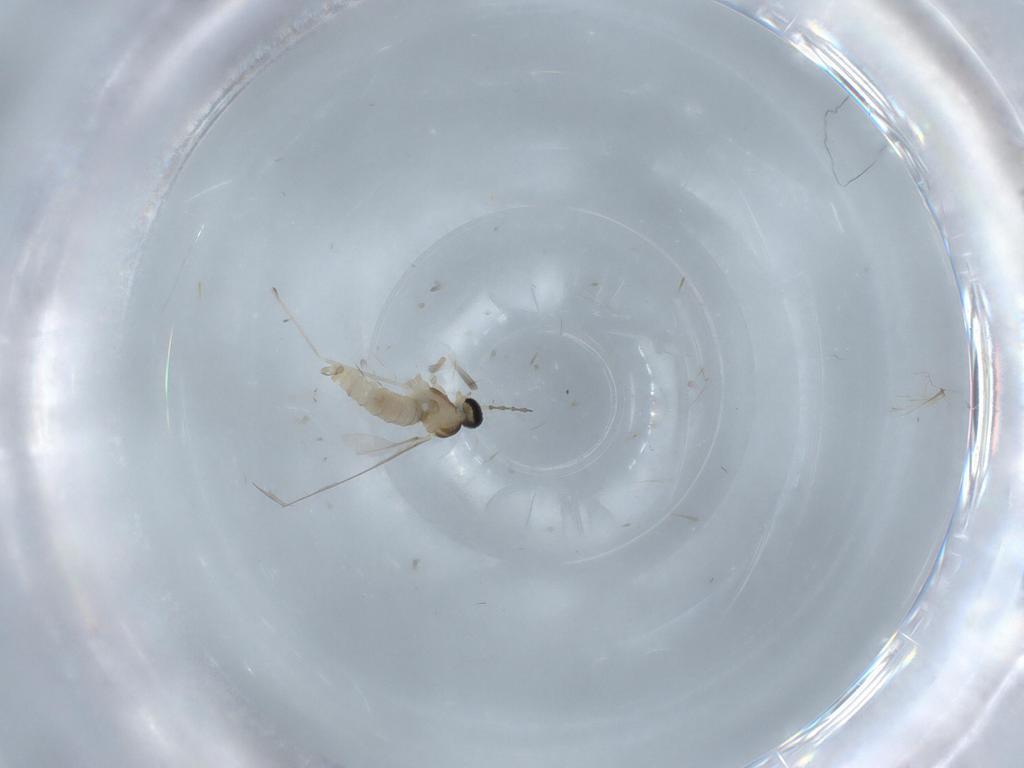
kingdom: Animalia
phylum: Arthropoda
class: Insecta
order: Diptera
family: Cecidomyiidae
